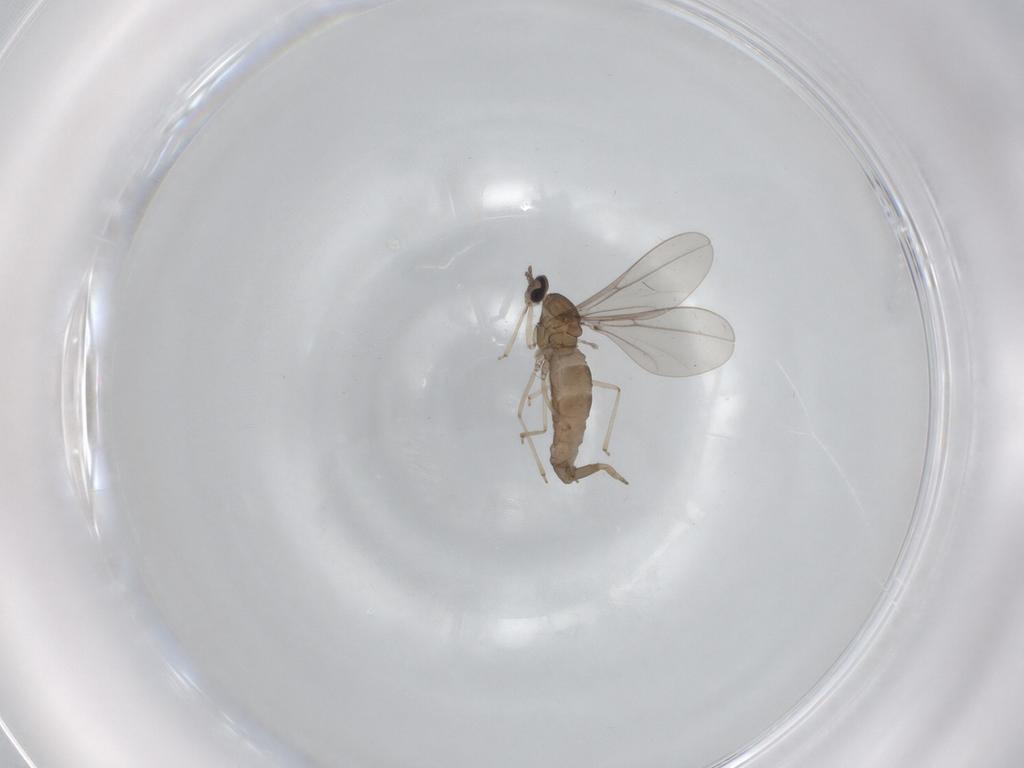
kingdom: Animalia
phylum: Arthropoda
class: Insecta
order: Diptera
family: Cecidomyiidae
